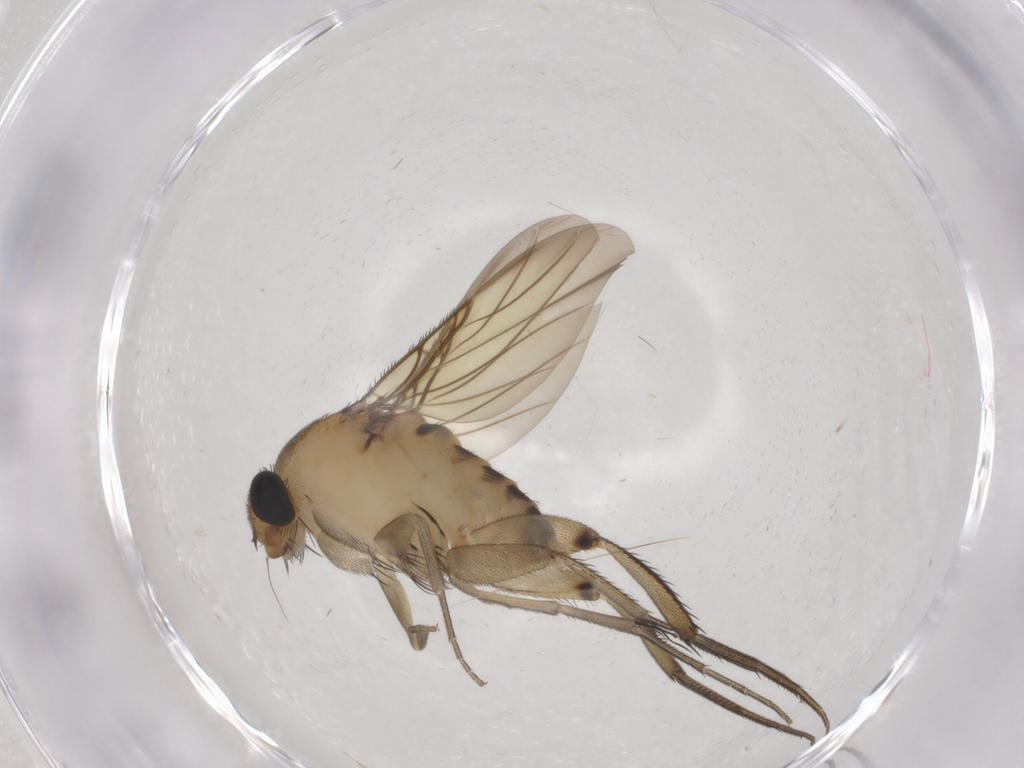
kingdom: Animalia
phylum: Arthropoda
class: Insecta
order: Diptera
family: Phoridae
